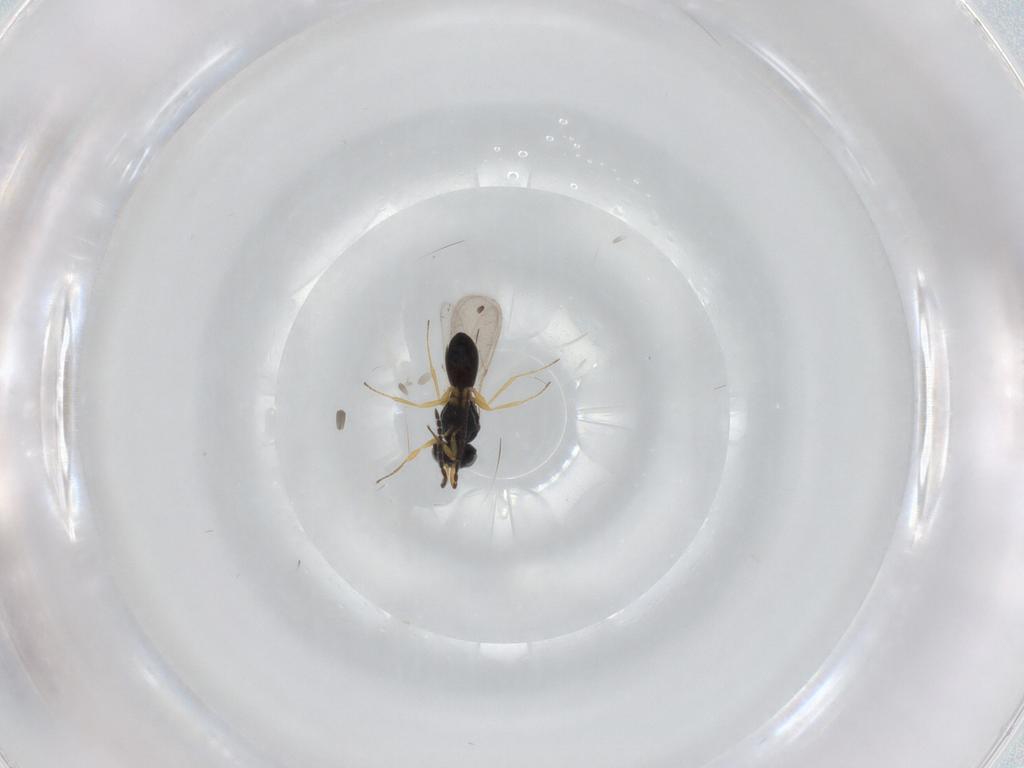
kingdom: Animalia
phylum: Arthropoda
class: Insecta
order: Hymenoptera
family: Scelionidae
